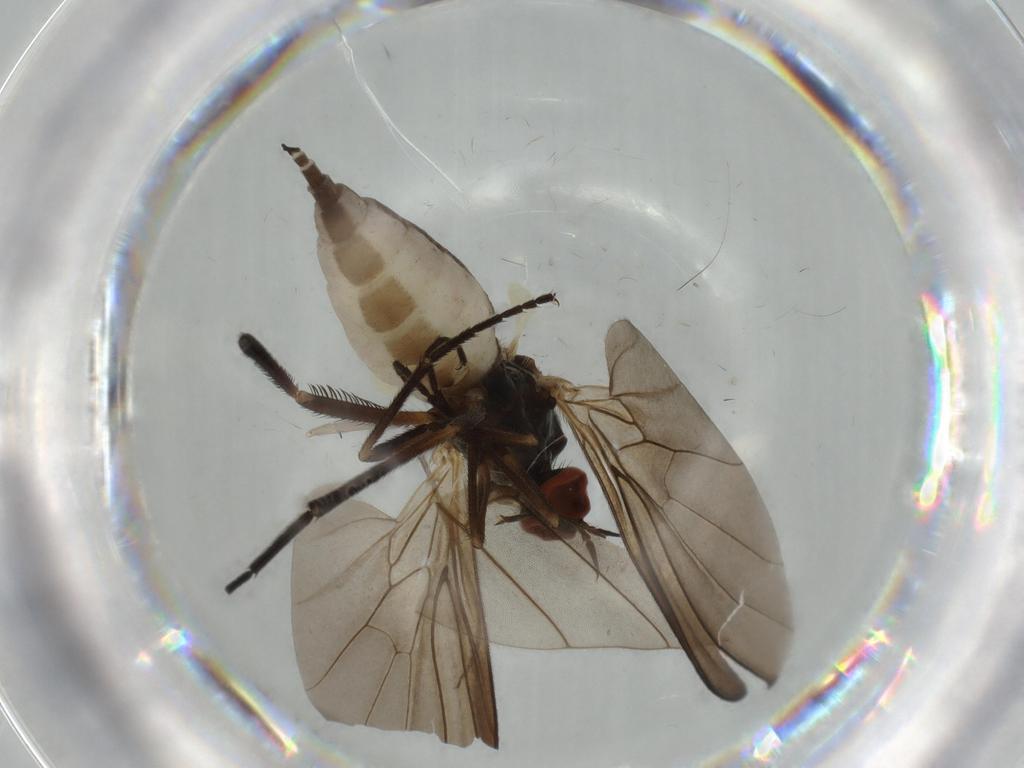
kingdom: Animalia
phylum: Arthropoda
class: Insecta
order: Diptera
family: Empididae
